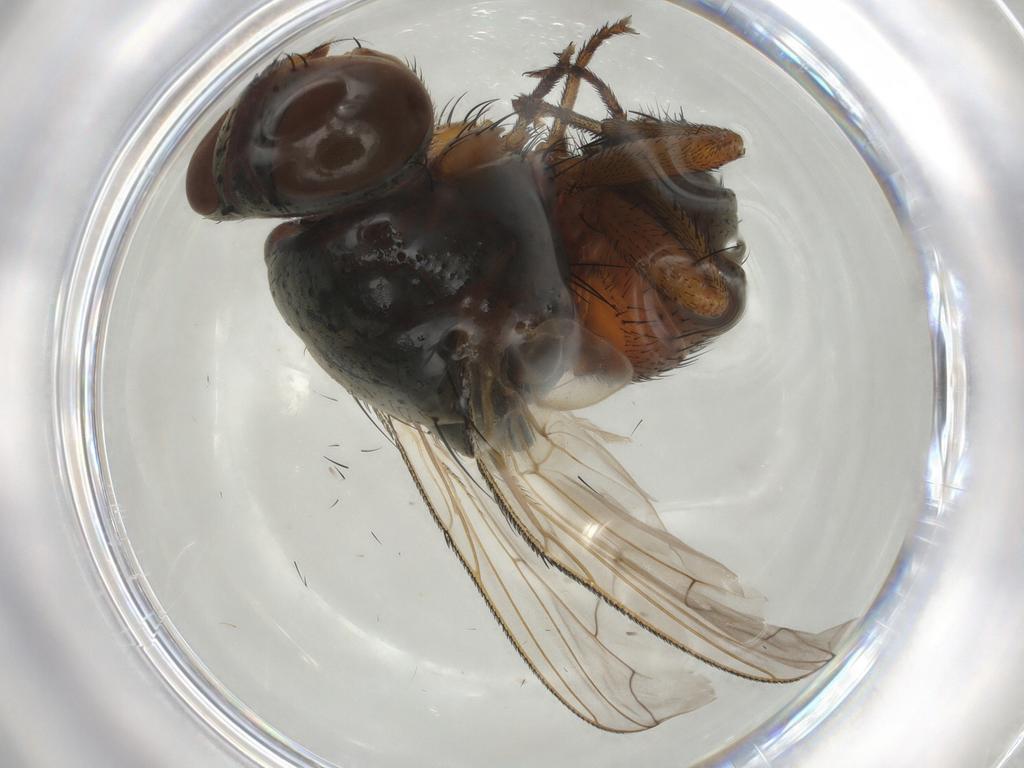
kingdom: Animalia
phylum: Arthropoda
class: Insecta
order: Diptera
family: Sarcophagidae
